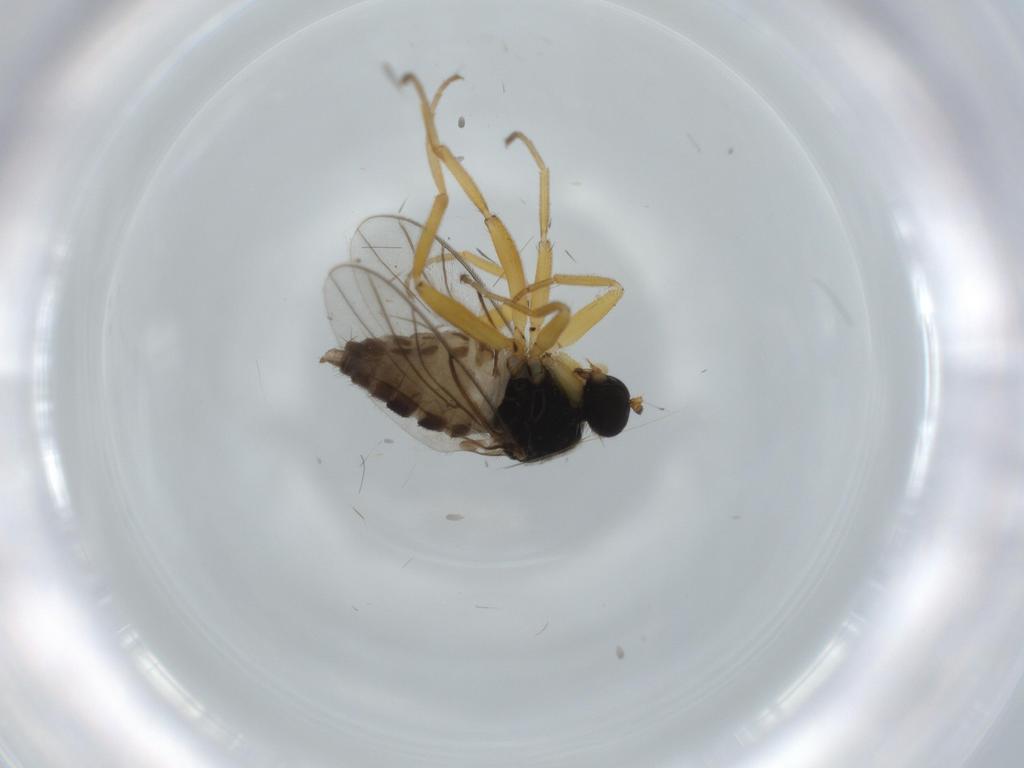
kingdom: Animalia
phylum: Arthropoda
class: Insecta
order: Diptera
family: Hybotidae
